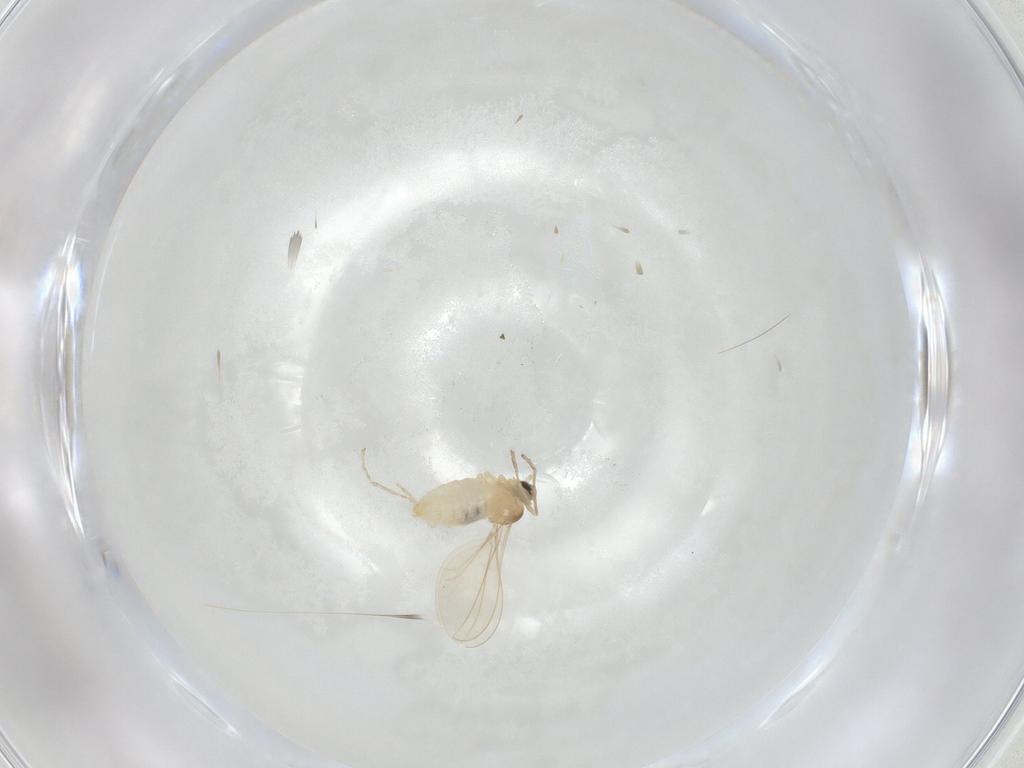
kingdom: Animalia
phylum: Arthropoda
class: Insecta
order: Diptera
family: Cecidomyiidae
